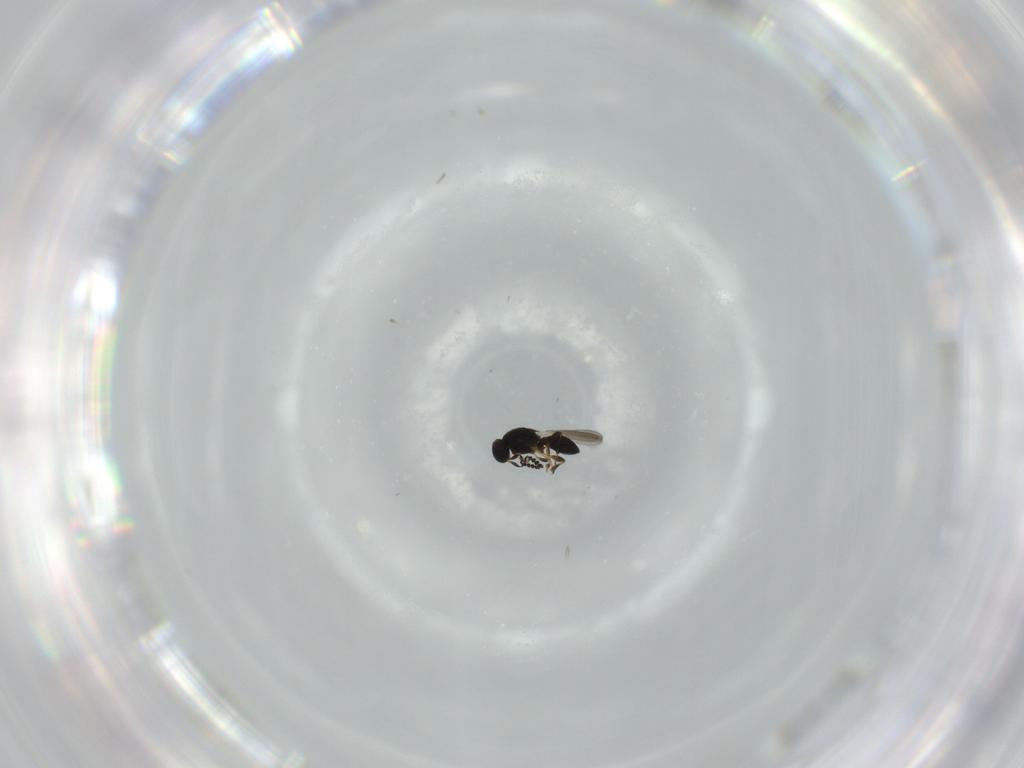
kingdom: Animalia
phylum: Arthropoda
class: Insecta
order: Hymenoptera
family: Platygastridae
